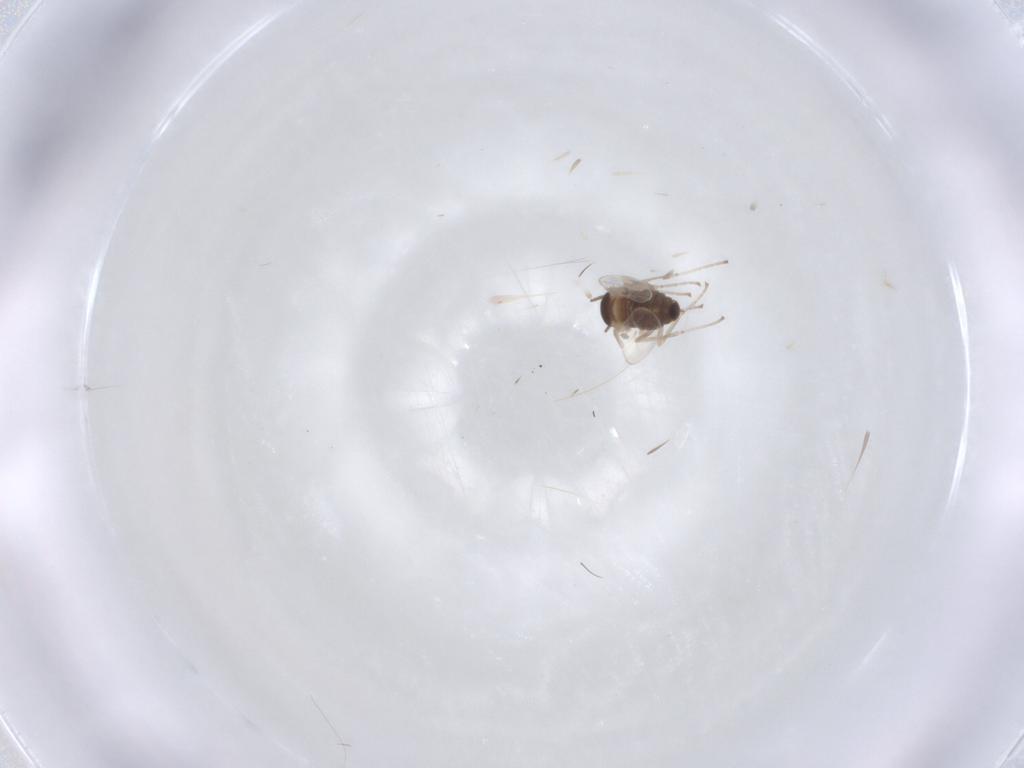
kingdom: Animalia
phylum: Arthropoda
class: Insecta
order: Diptera
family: Cecidomyiidae
